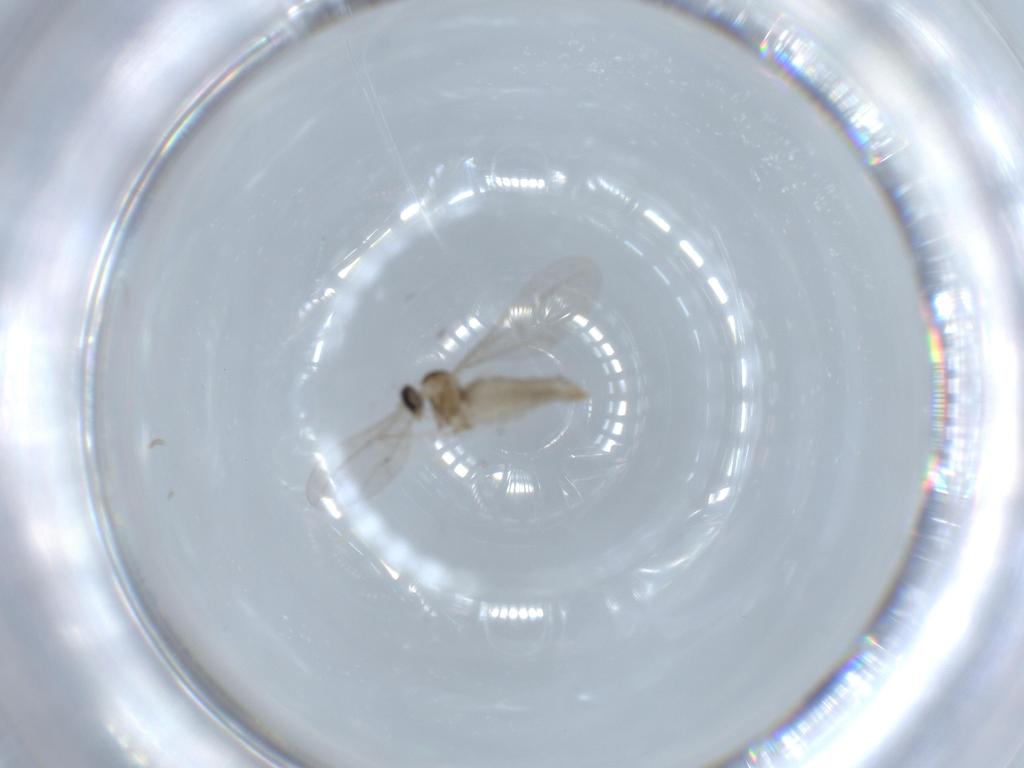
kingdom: Animalia
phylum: Arthropoda
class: Insecta
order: Diptera
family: Cecidomyiidae
